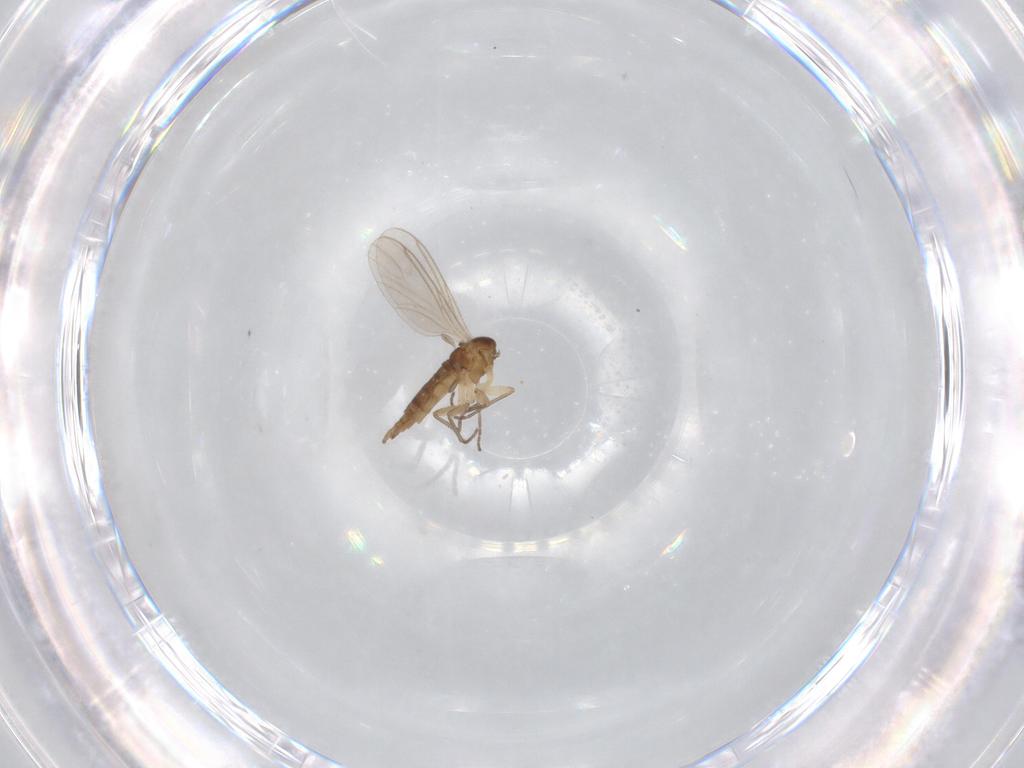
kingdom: Animalia
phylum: Arthropoda
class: Insecta
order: Diptera
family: Sciaridae
